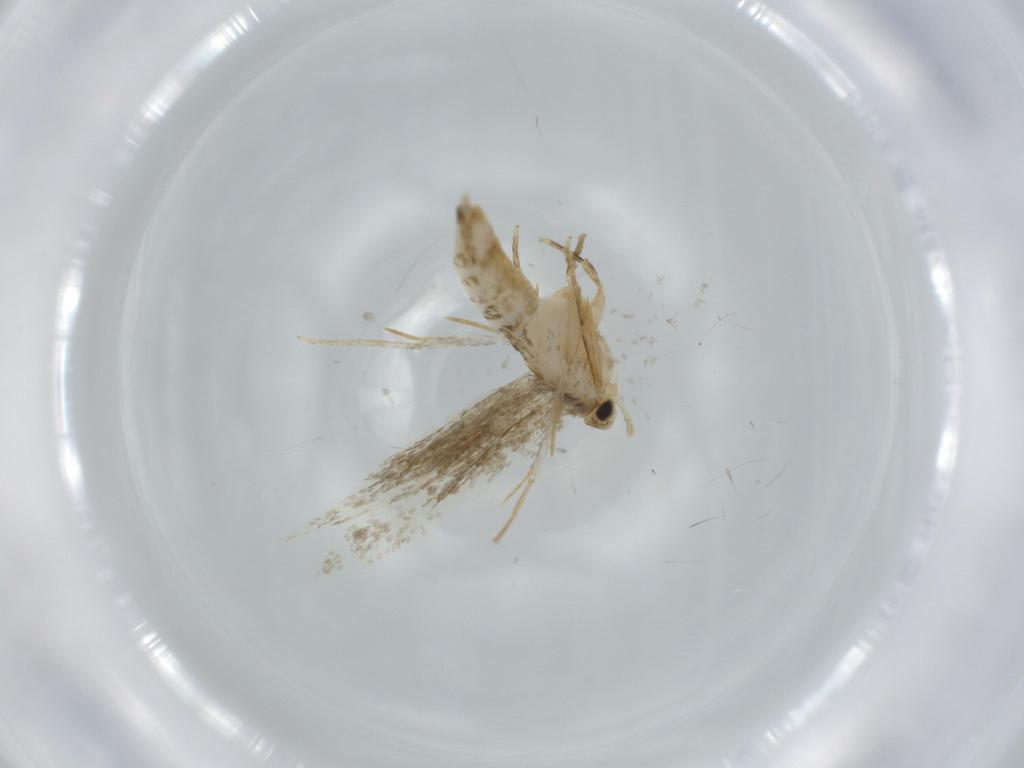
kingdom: Animalia
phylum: Arthropoda
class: Insecta
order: Lepidoptera
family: Tineidae
